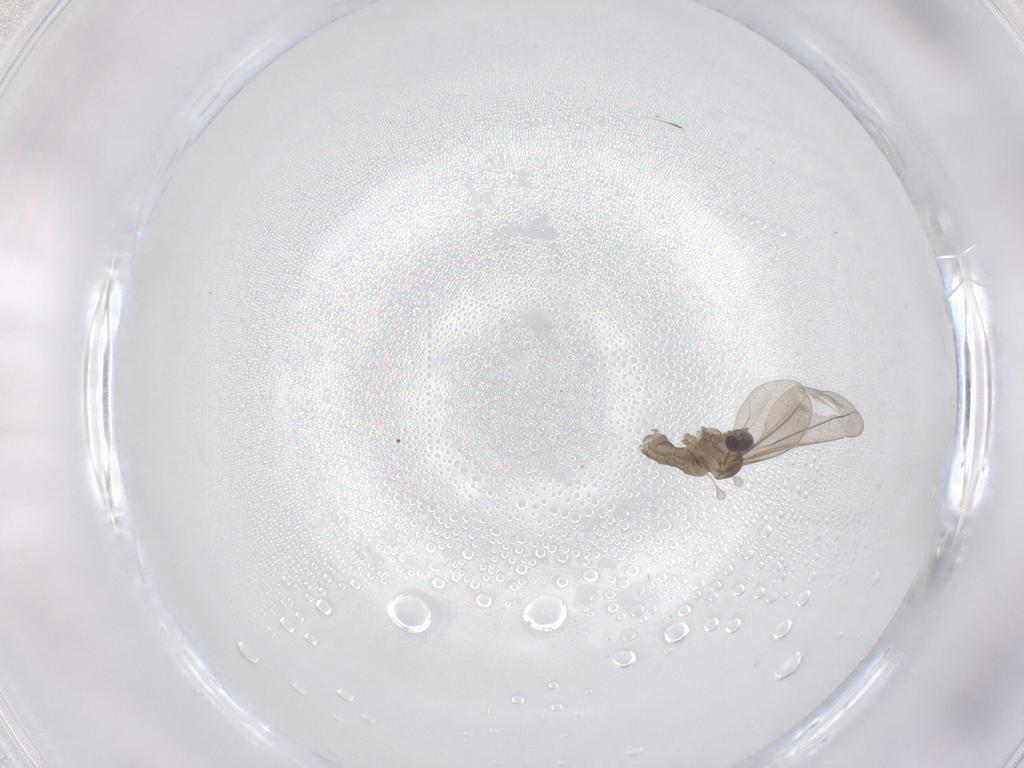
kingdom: Animalia
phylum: Arthropoda
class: Insecta
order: Diptera
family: Cecidomyiidae
